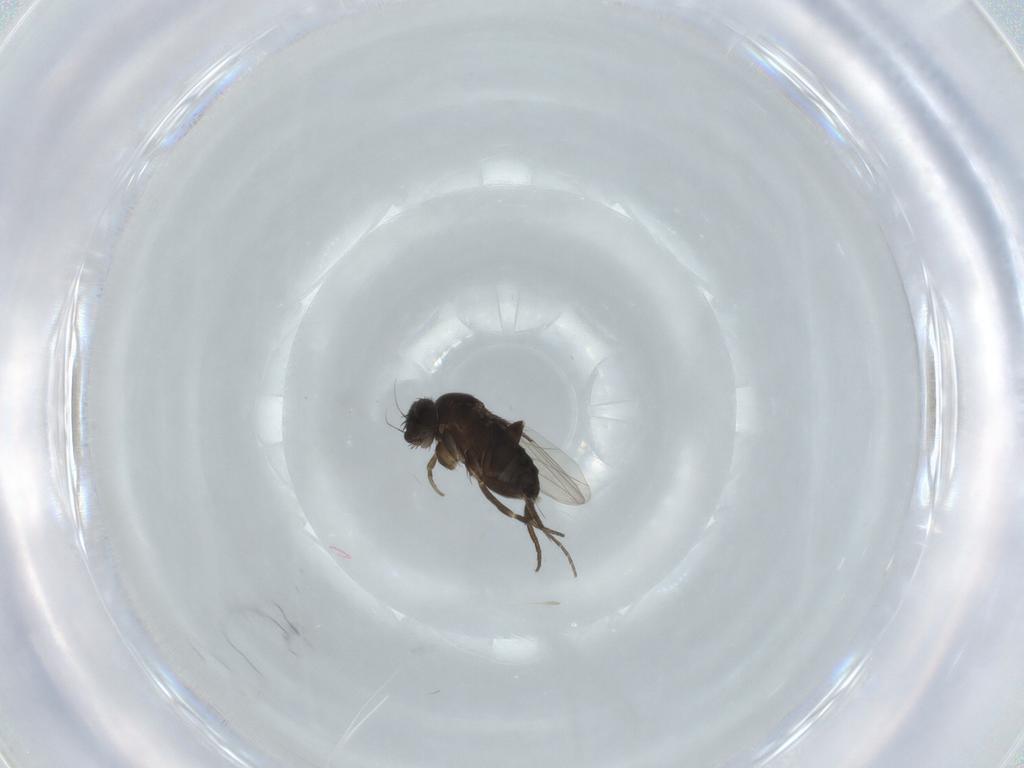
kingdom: Animalia
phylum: Arthropoda
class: Insecta
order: Diptera
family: Phoridae
